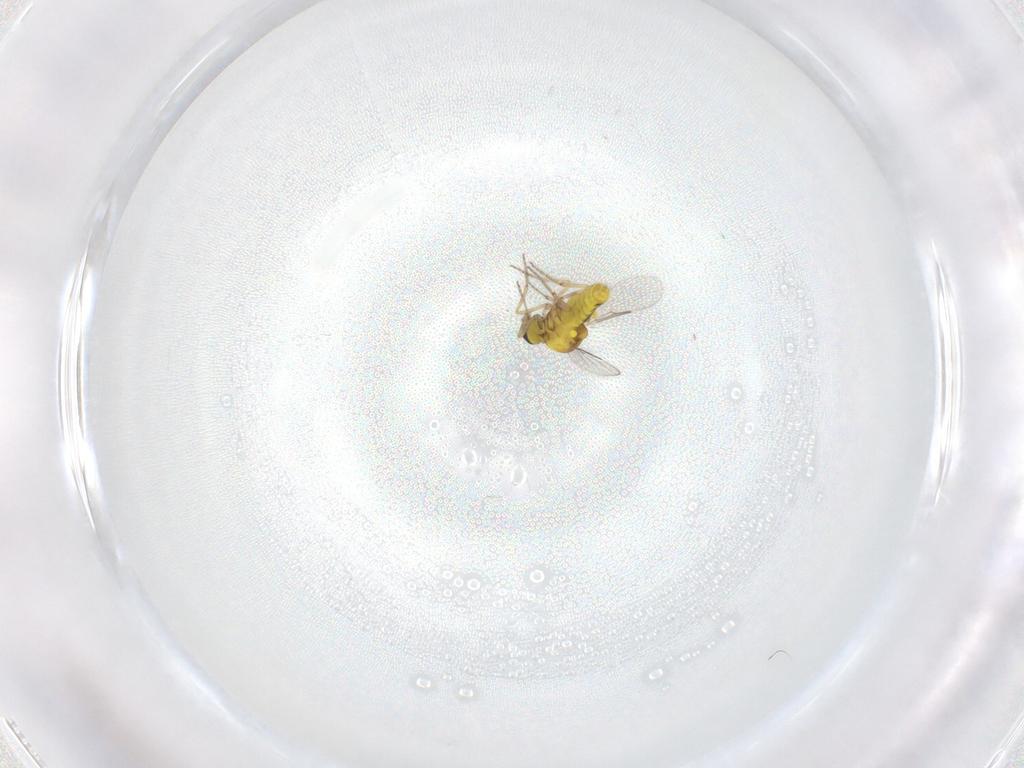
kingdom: Animalia
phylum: Arthropoda
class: Insecta
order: Diptera
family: Ceratopogonidae
